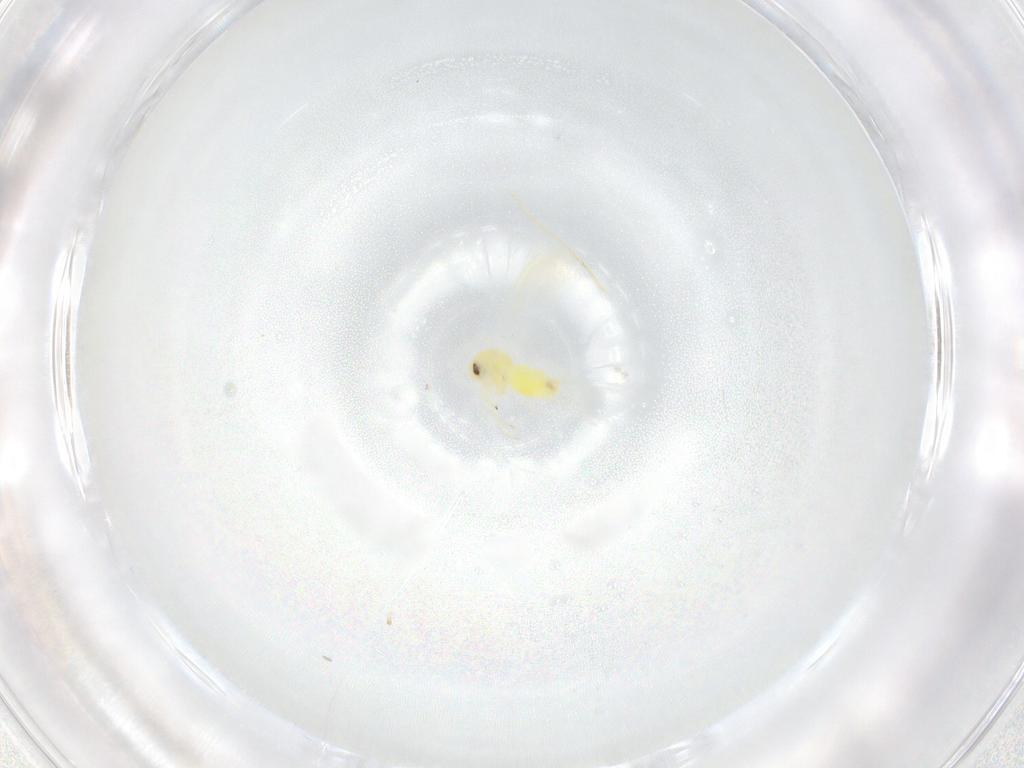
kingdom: Animalia
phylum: Arthropoda
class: Insecta
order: Hemiptera
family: Aleyrodidae
